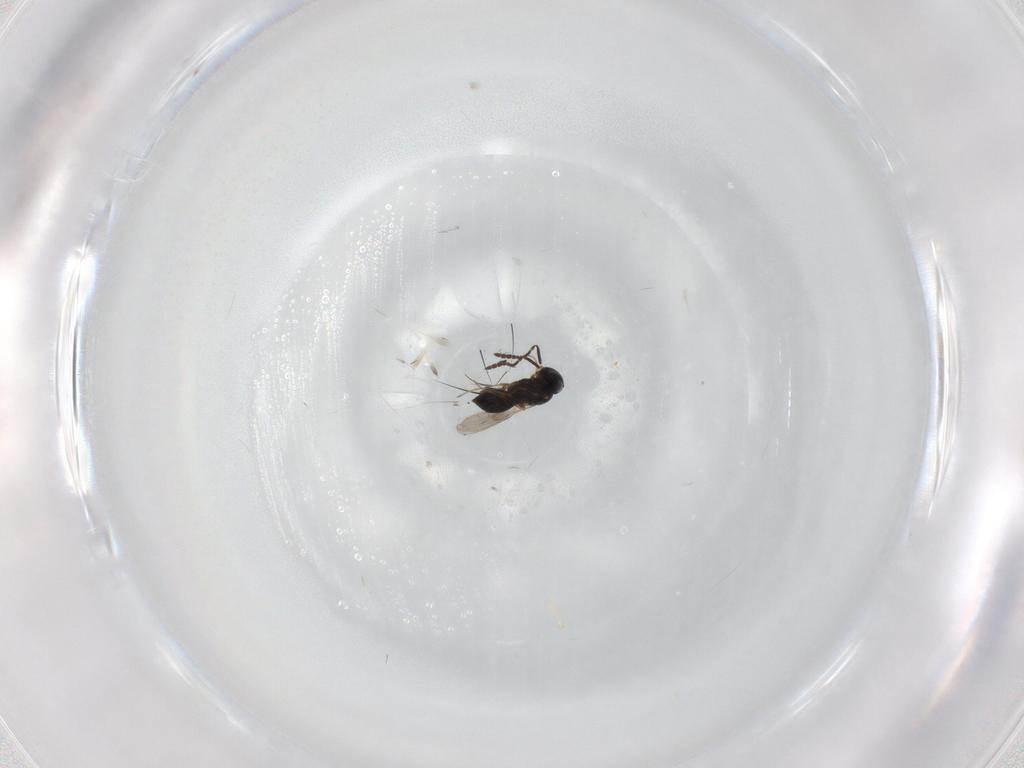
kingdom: Animalia
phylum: Arthropoda
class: Insecta
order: Hymenoptera
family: Scelionidae
